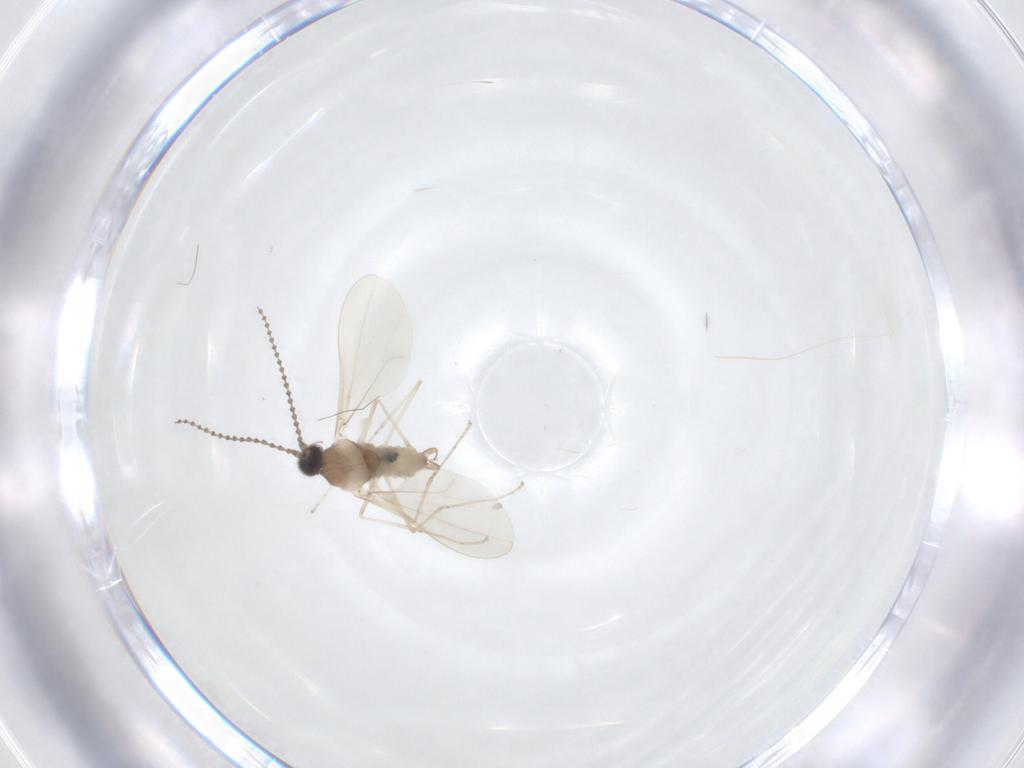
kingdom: Animalia
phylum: Arthropoda
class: Insecta
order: Diptera
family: Cecidomyiidae
